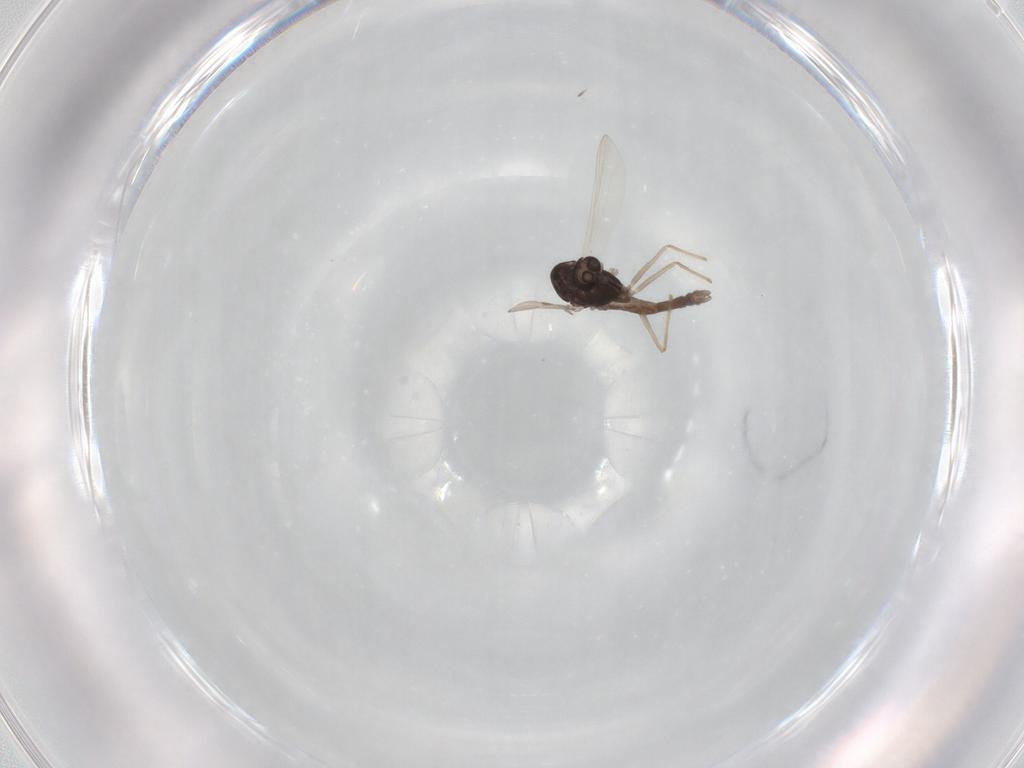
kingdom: Animalia
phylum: Arthropoda
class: Insecta
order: Diptera
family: Chironomidae
